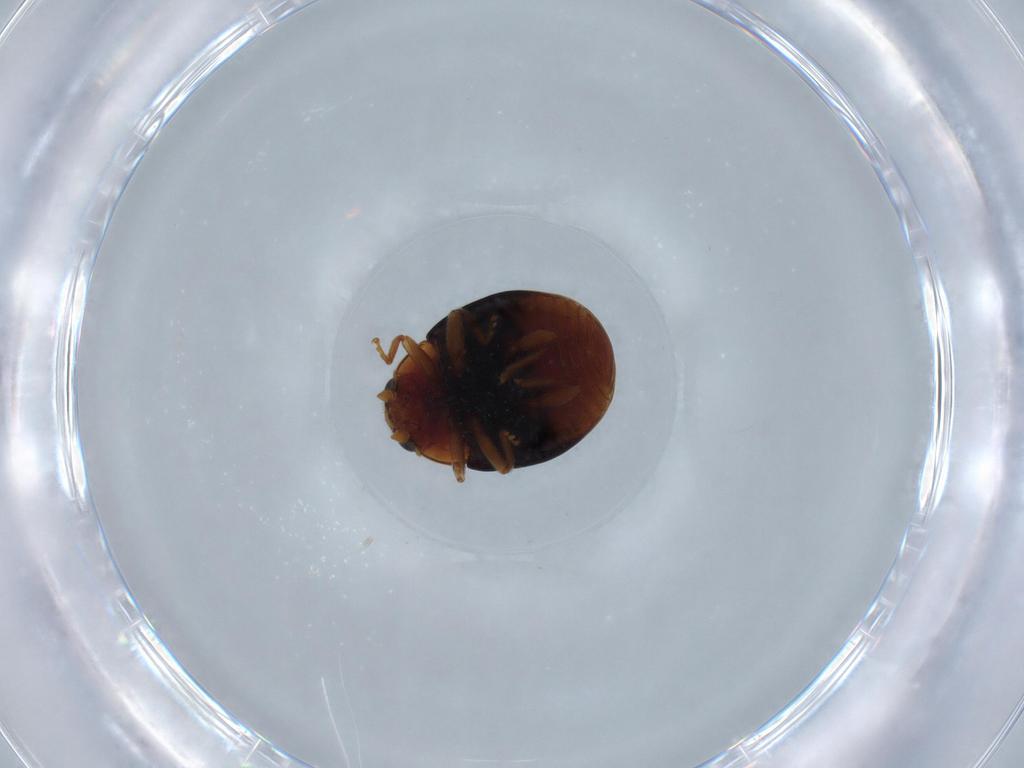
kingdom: Animalia
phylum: Arthropoda
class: Insecta
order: Coleoptera
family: Coccinellidae
